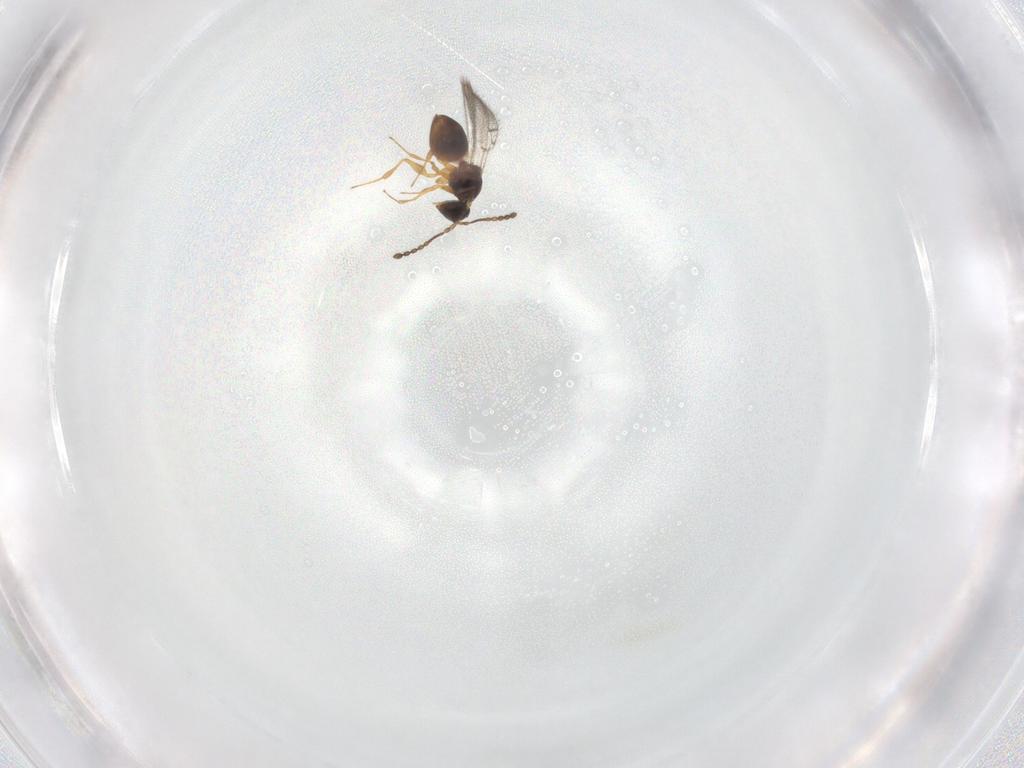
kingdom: Animalia
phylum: Arthropoda
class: Insecta
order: Hymenoptera
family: Figitidae
